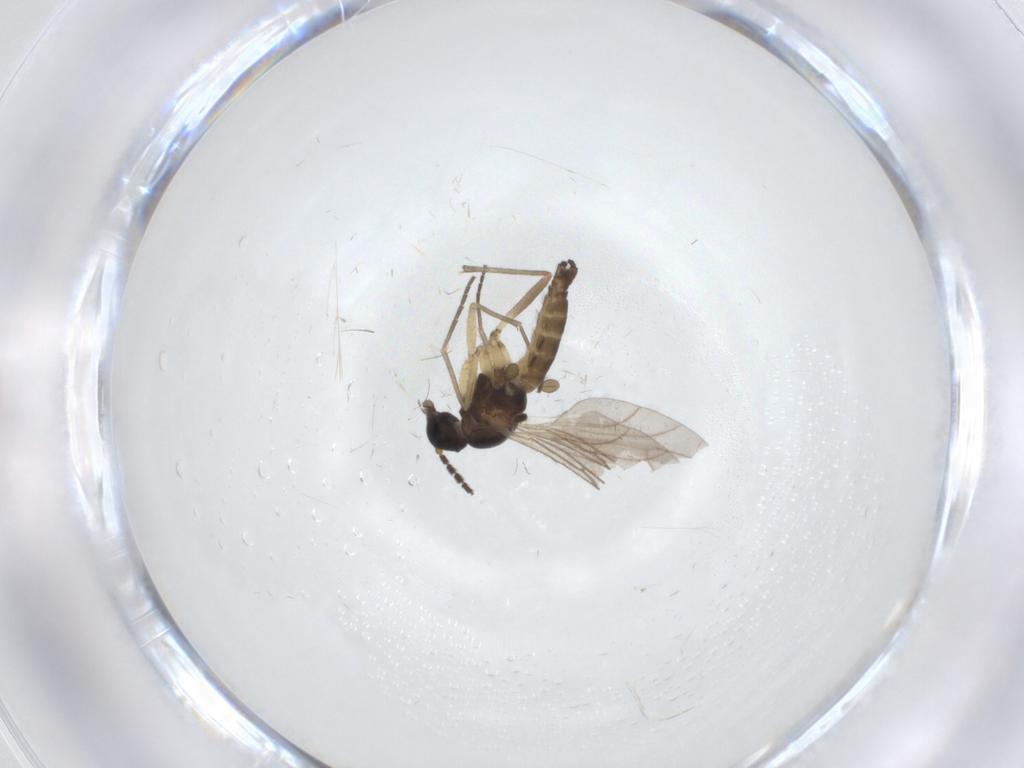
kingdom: Animalia
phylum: Arthropoda
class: Insecta
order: Diptera
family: Sciaridae
